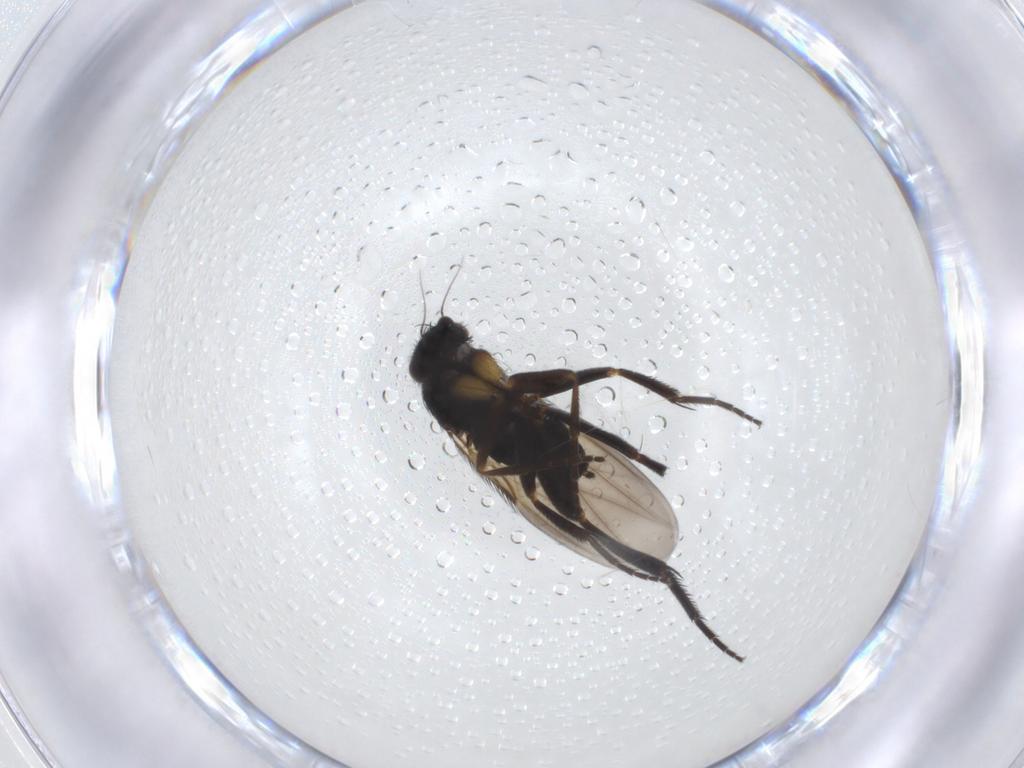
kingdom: Animalia
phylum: Arthropoda
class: Insecta
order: Diptera
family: Phoridae
